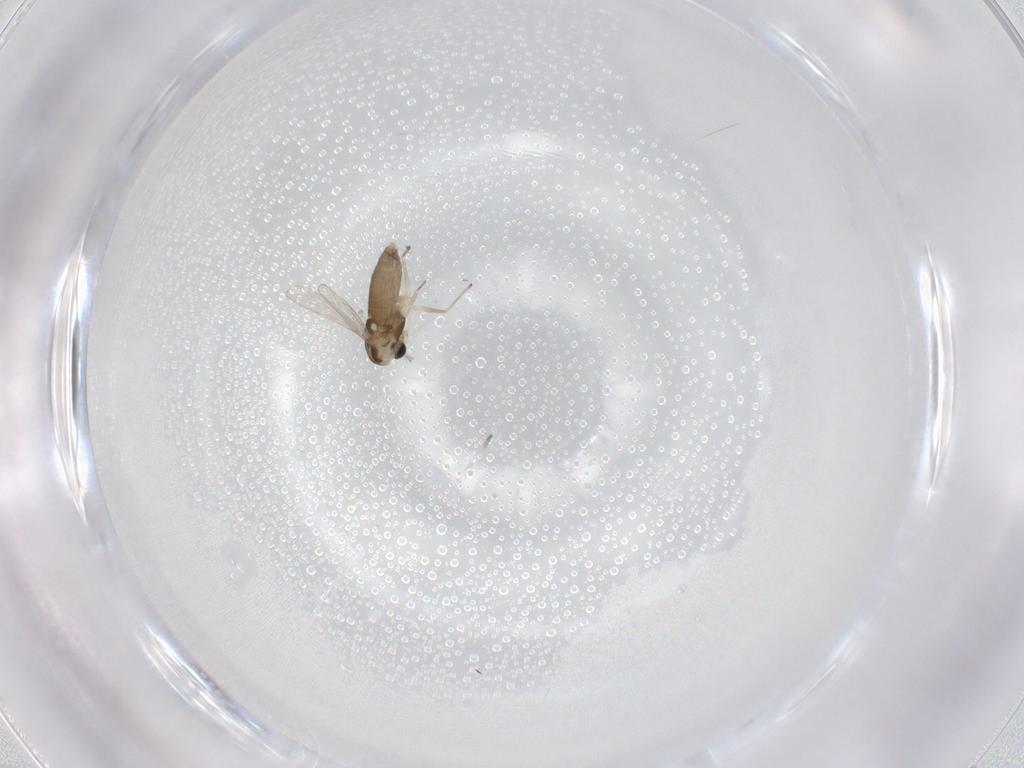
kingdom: Animalia
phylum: Arthropoda
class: Insecta
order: Diptera
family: Chironomidae
